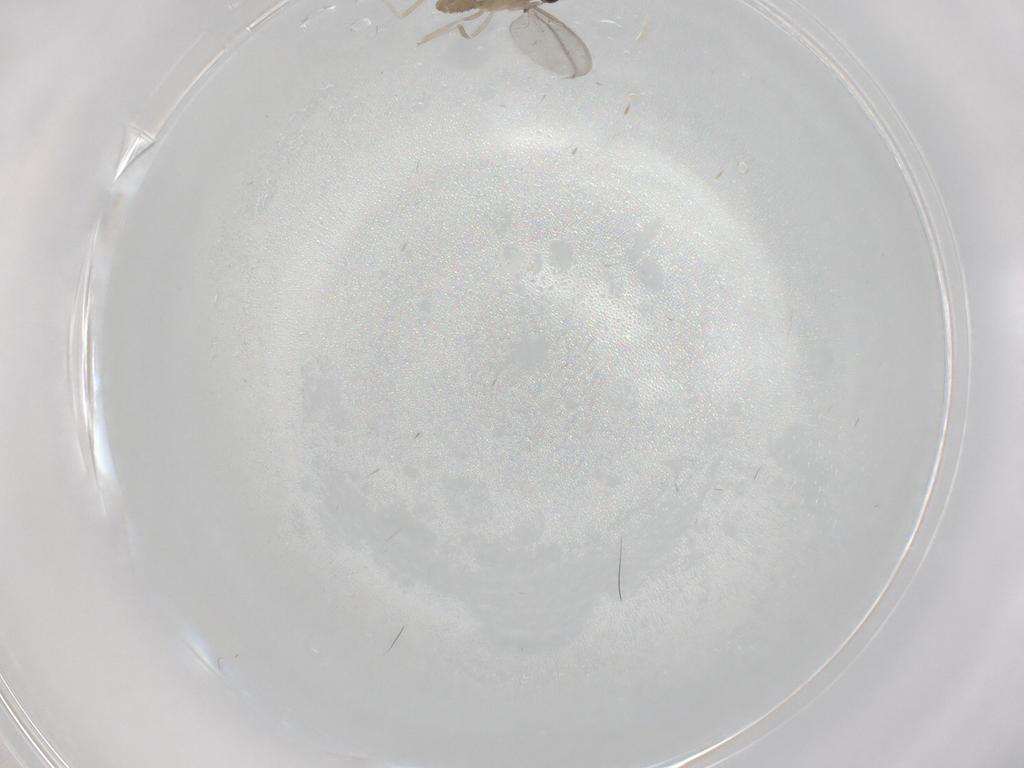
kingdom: Animalia
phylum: Arthropoda
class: Insecta
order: Diptera
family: Cecidomyiidae
